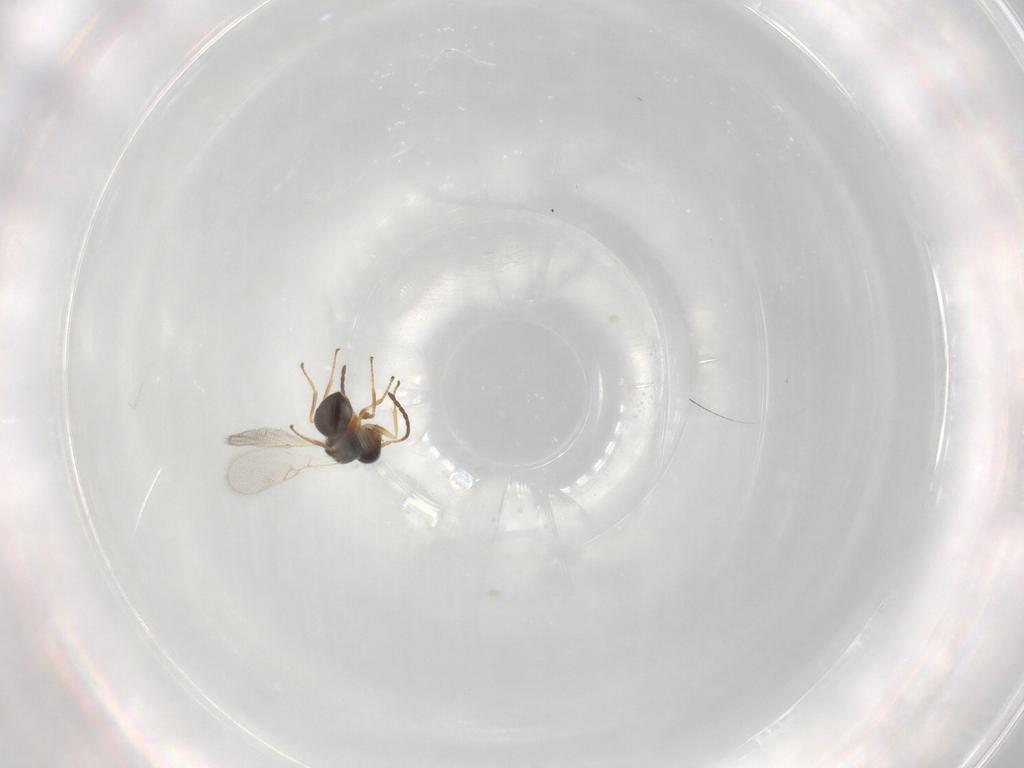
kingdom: Animalia
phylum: Arthropoda
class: Insecta
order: Hymenoptera
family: Figitidae
